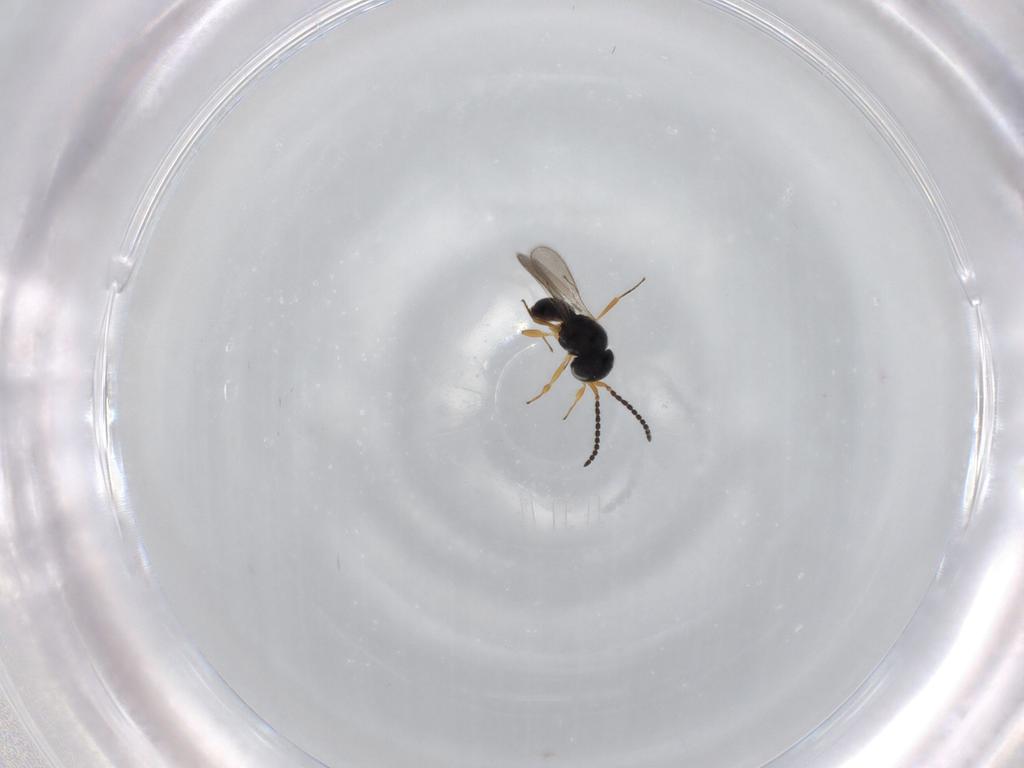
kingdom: Animalia
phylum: Arthropoda
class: Insecta
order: Hymenoptera
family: Scelionidae
